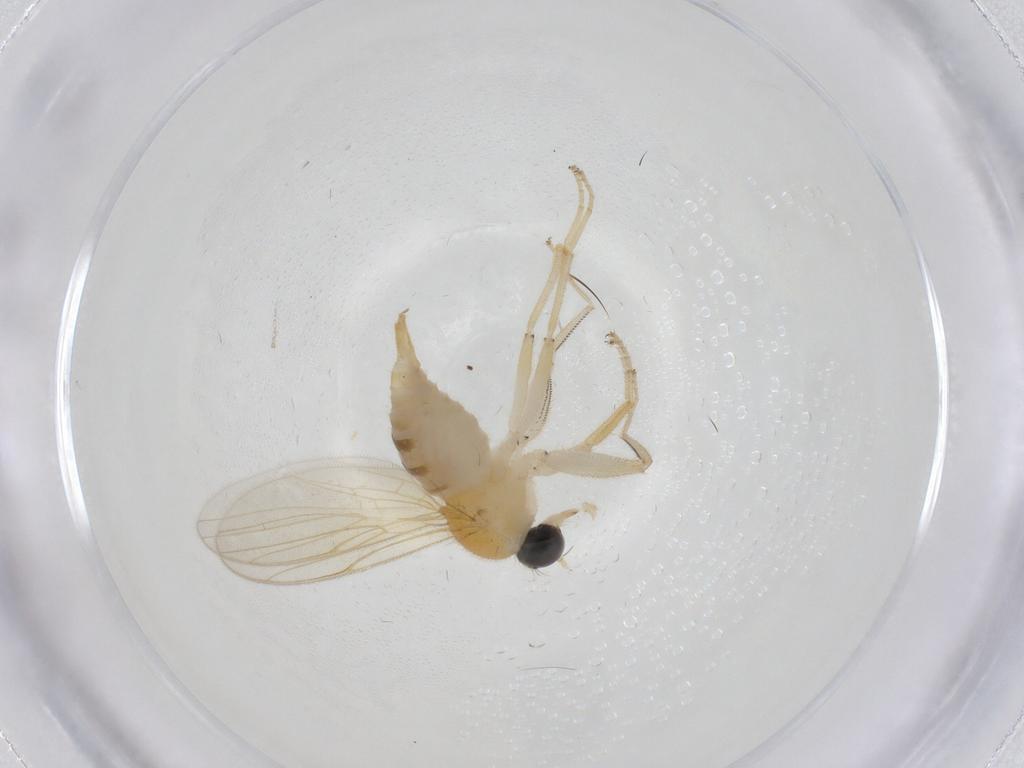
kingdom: Animalia
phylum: Arthropoda
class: Insecta
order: Diptera
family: Sciaridae
